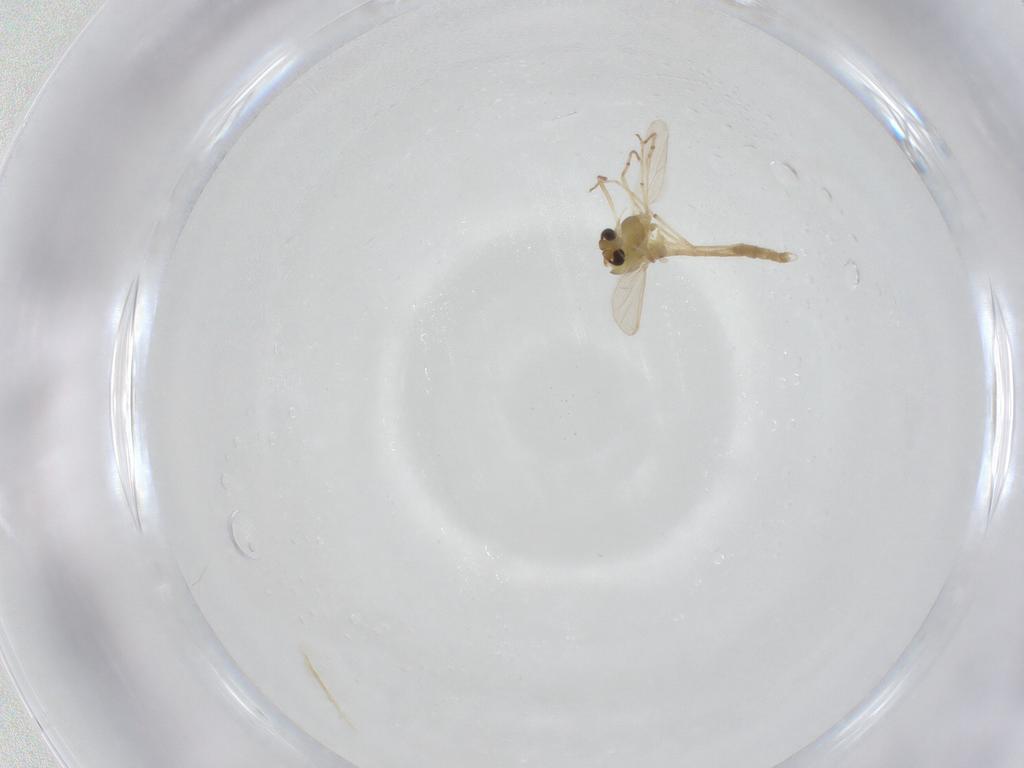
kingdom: Animalia
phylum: Arthropoda
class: Insecta
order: Diptera
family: Chironomidae
